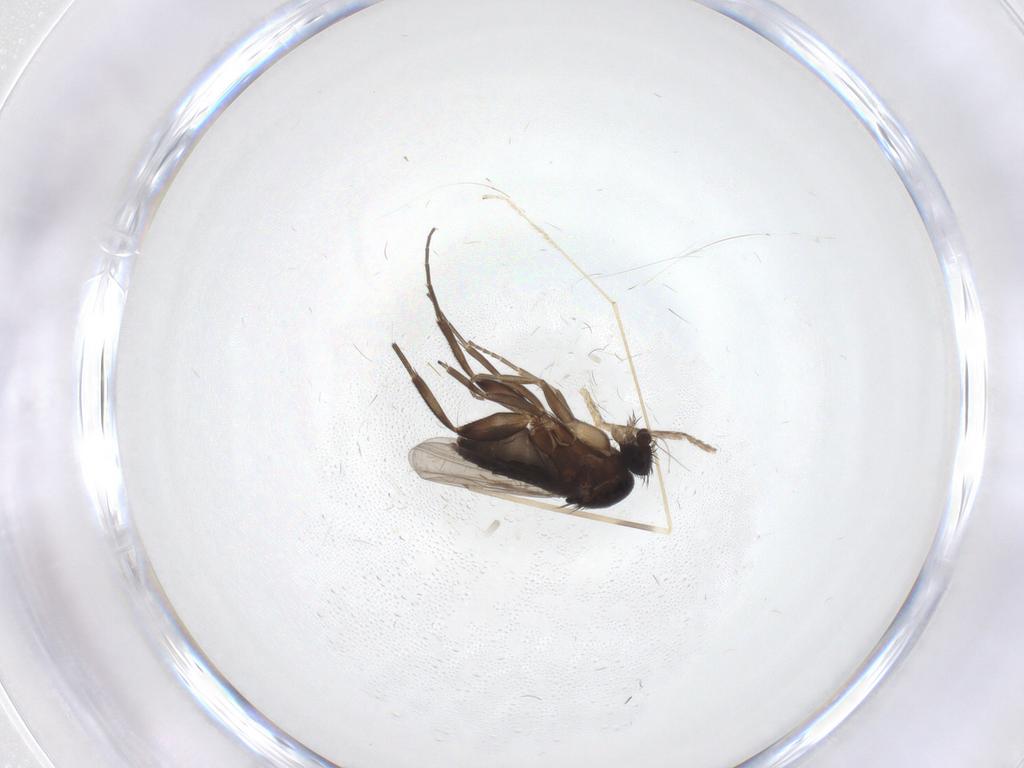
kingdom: Animalia
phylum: Arthropoda
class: Insecta
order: Diptera
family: Phoridae
